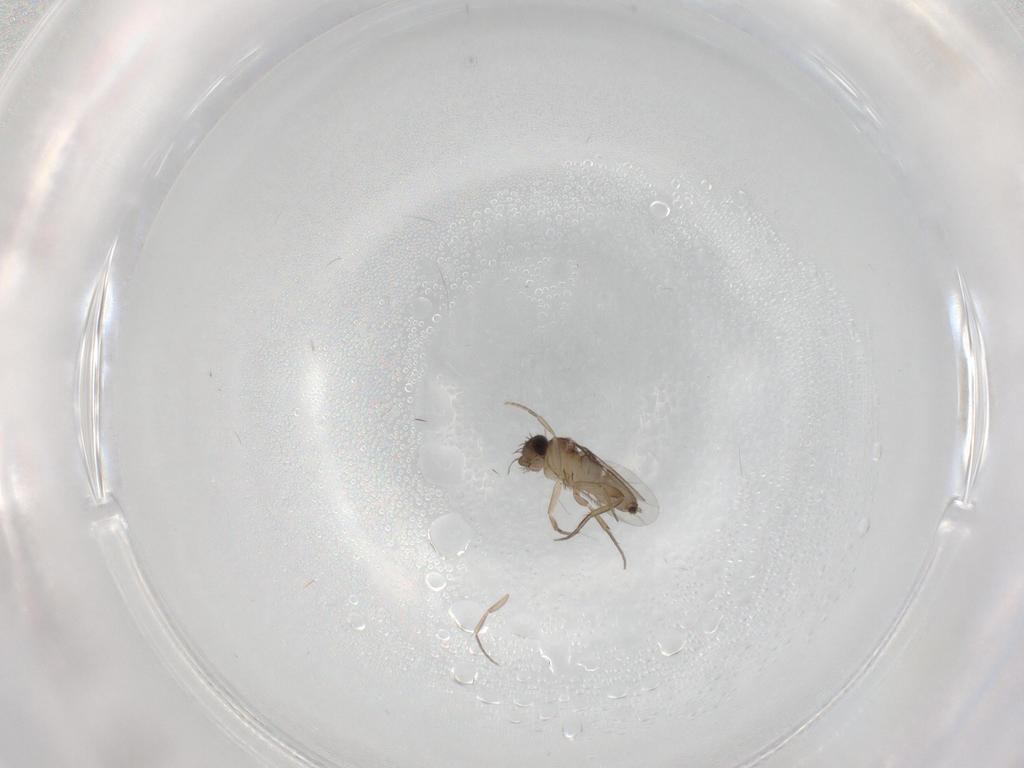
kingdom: Animalia
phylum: Arthropoda
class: Insecta
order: Diptera
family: Phoridae
